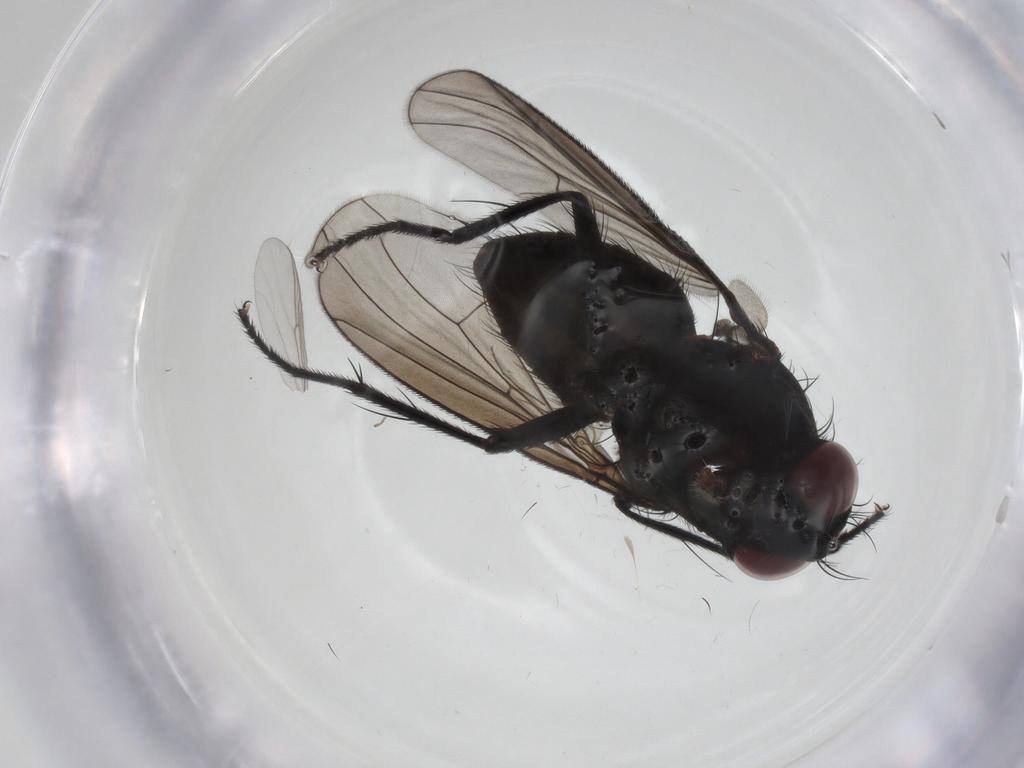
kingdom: Animalia
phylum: Arthropoda
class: Insecta
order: Diptera
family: Muscidae
